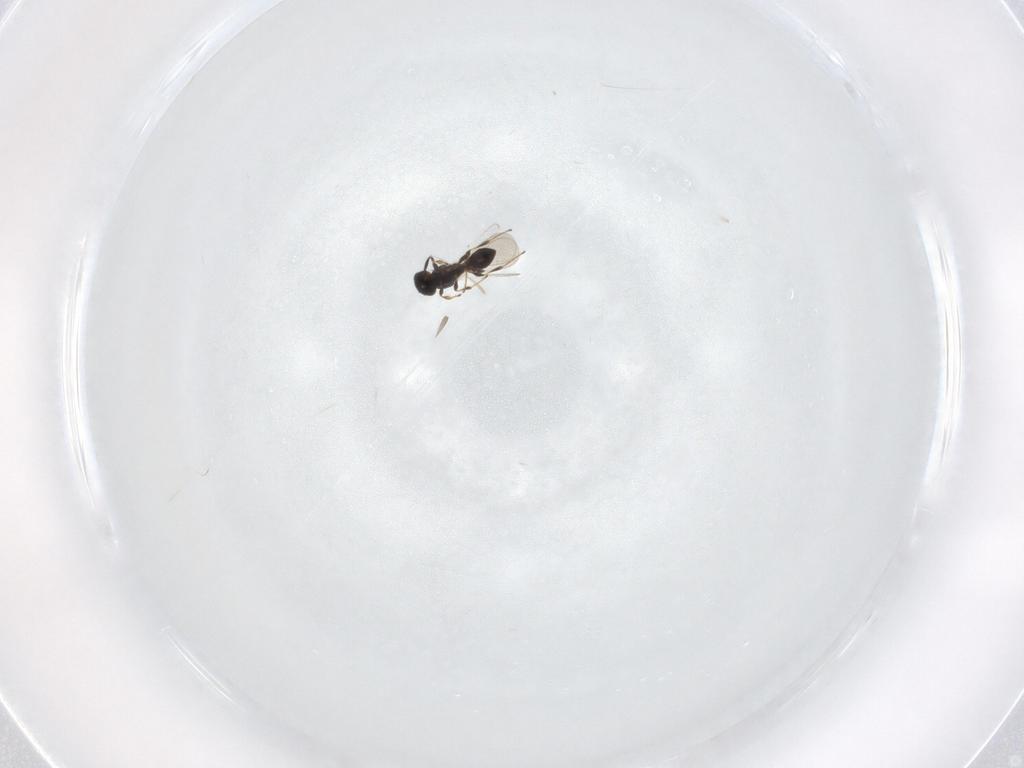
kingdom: Animalia
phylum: Arthropoda
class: Insecta
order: Hymenoptera
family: Platygastridae
